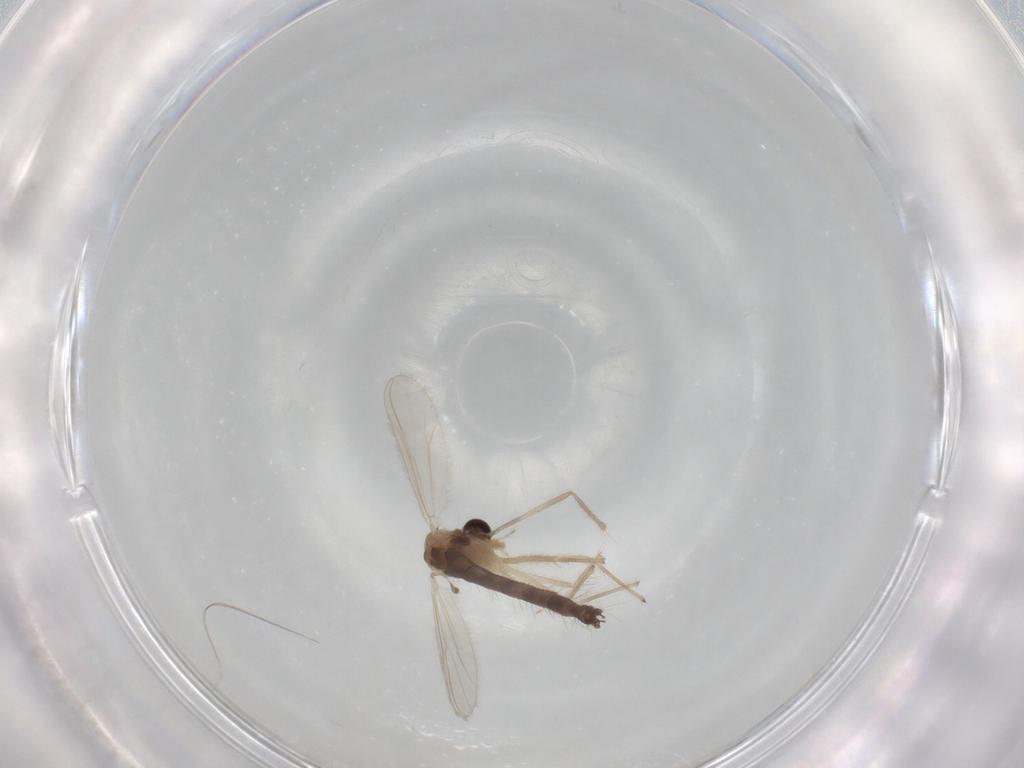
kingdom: Animalia
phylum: Arthropoda
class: Insecta
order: Diptera
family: Chironomidae
